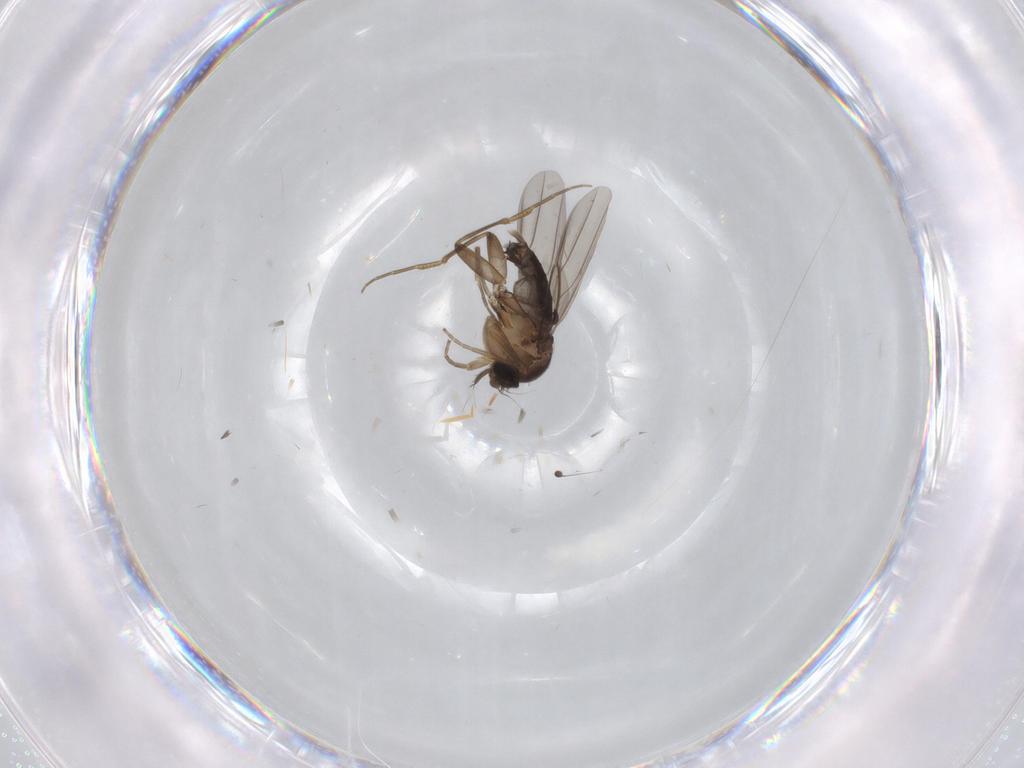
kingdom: Animalia
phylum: Arthropoda
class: Insecta
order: Diptera
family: Phoridae
